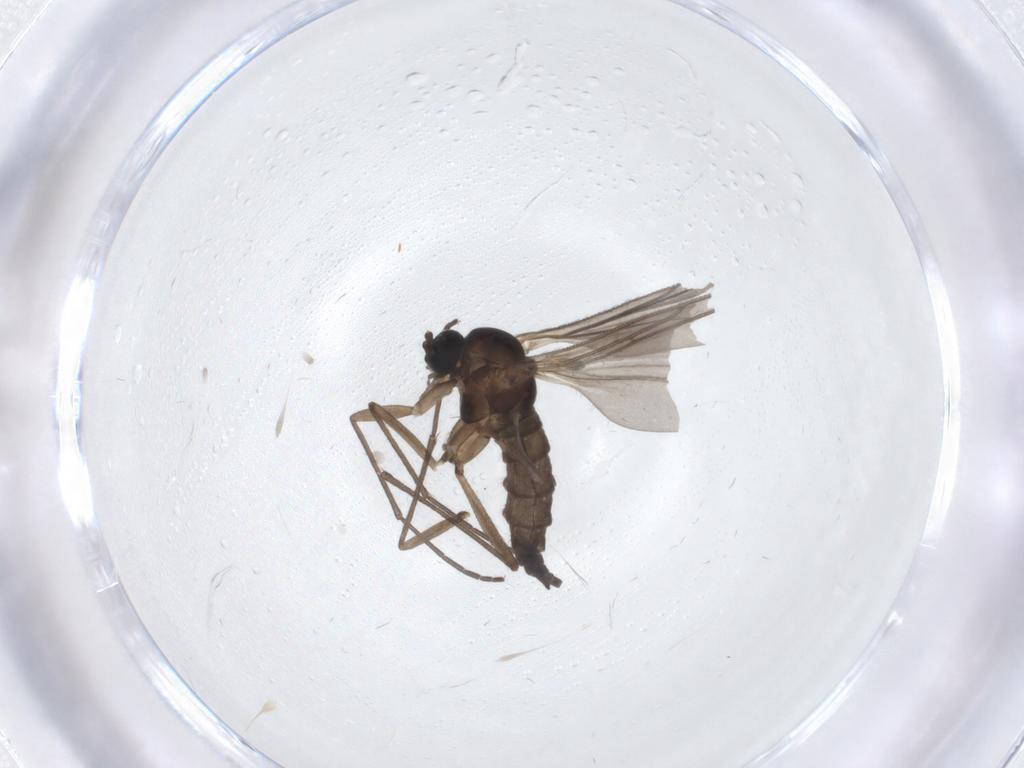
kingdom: Animalia
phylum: Arthropoda
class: Insecta
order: Diptera
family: Sciaridae
